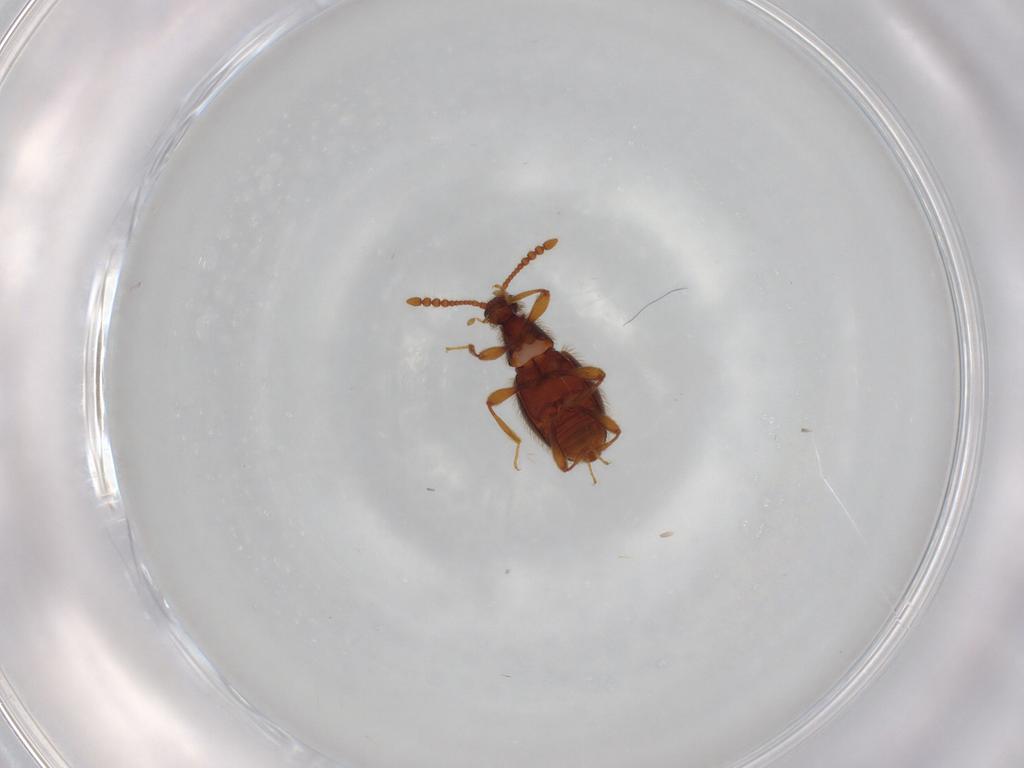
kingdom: Animalia
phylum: Arthropoda
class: Insecta
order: Coleoptera
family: Anthribidae
